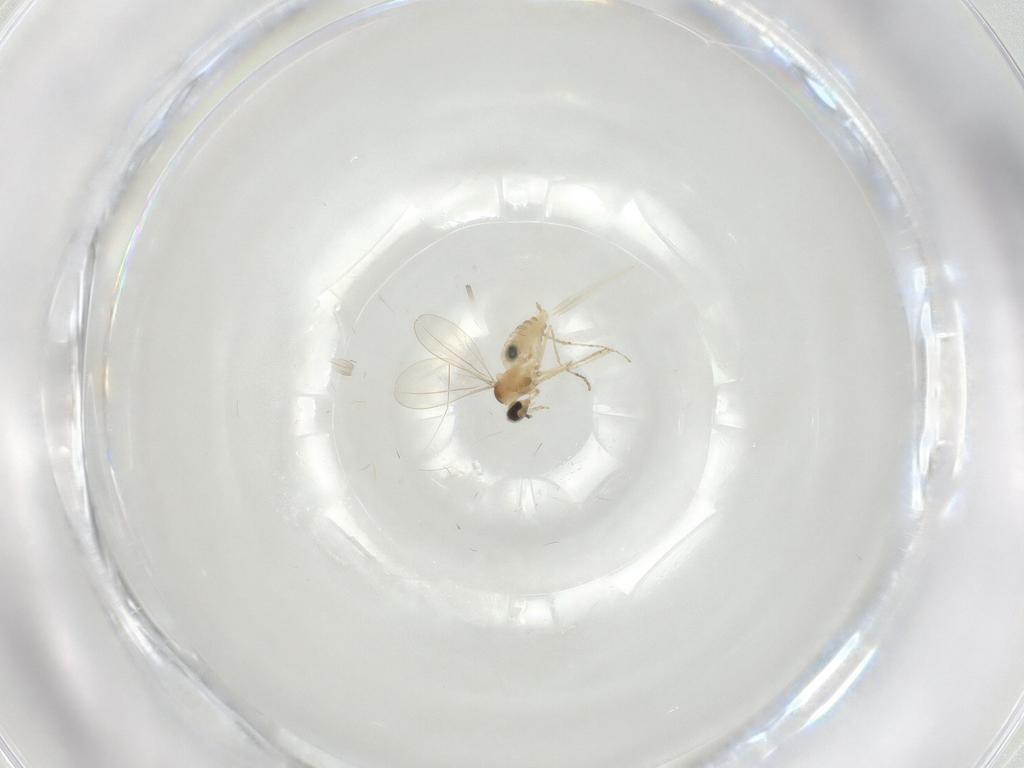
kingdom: Animalia
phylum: Arthropoda
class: Insecta
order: Diptera
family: Cecidomyiidae
